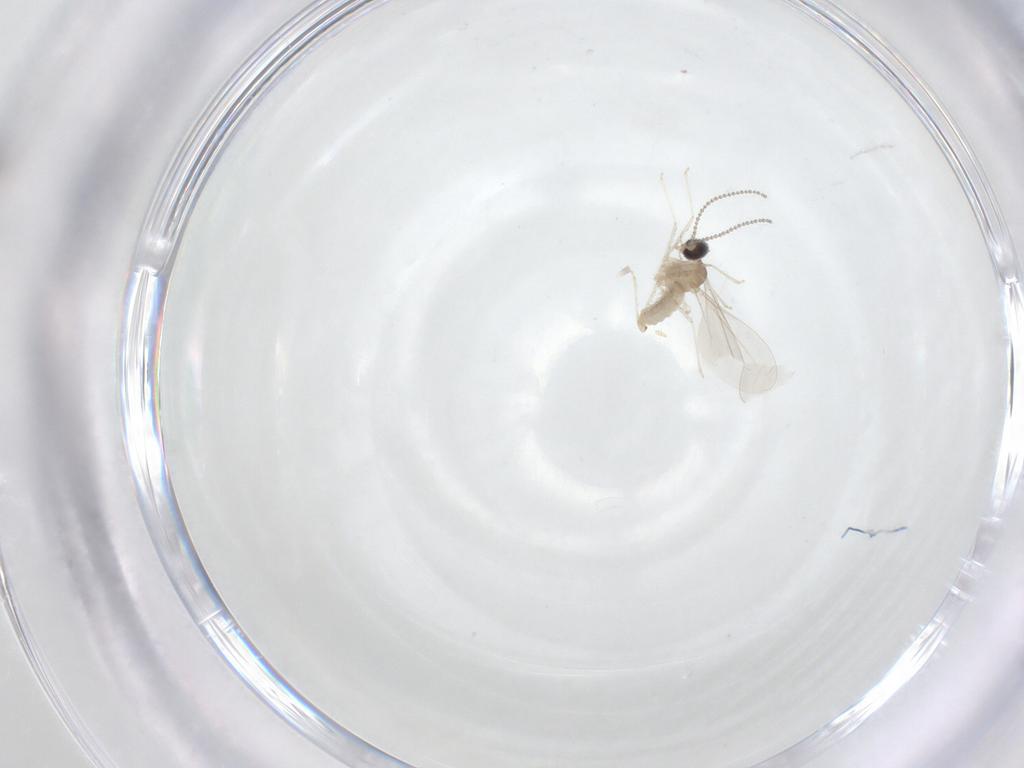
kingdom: Animalia
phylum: Arthropoda
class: Insecta
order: Diptera
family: Cecidomyiidae
